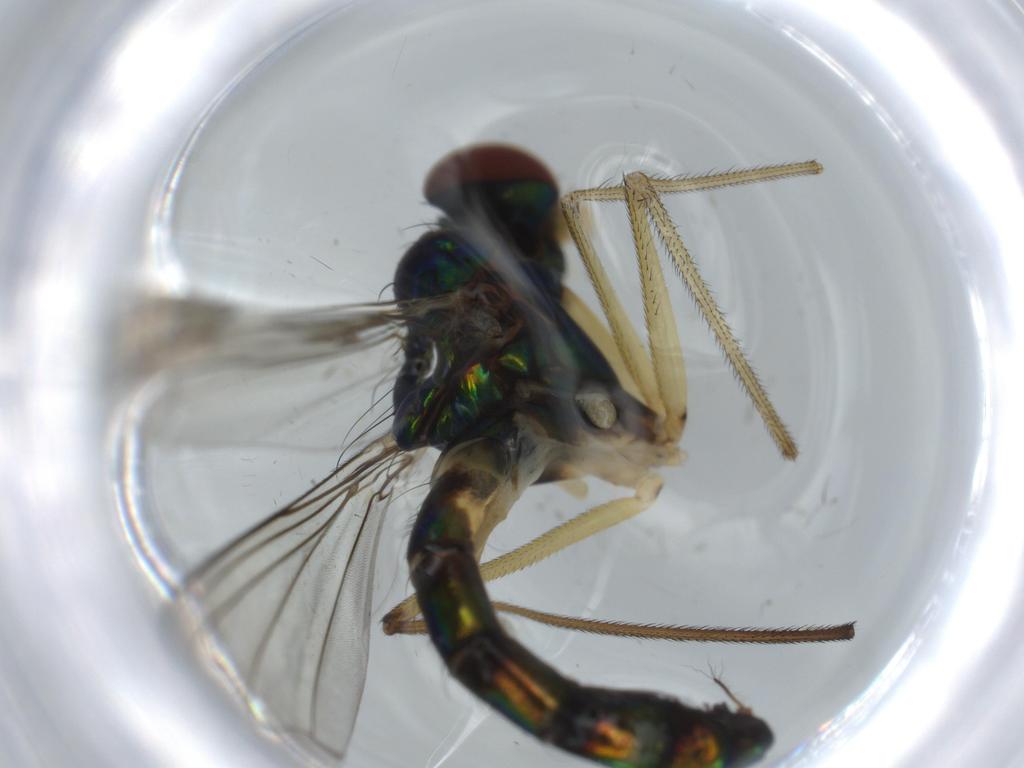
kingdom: Animalia
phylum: Arthropoda
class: Insecta
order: Diptera
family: Dolichopodidae
